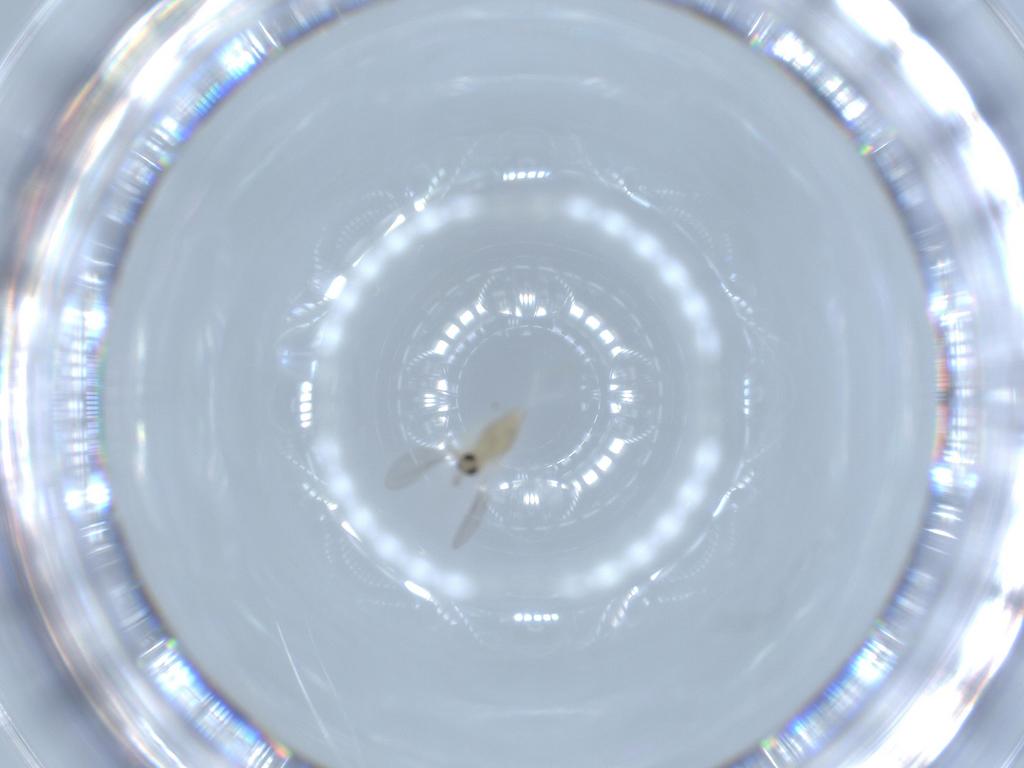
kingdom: Animalia
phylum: Arthropoda
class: Insecta
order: Diptera
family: Cecidomyiidae
